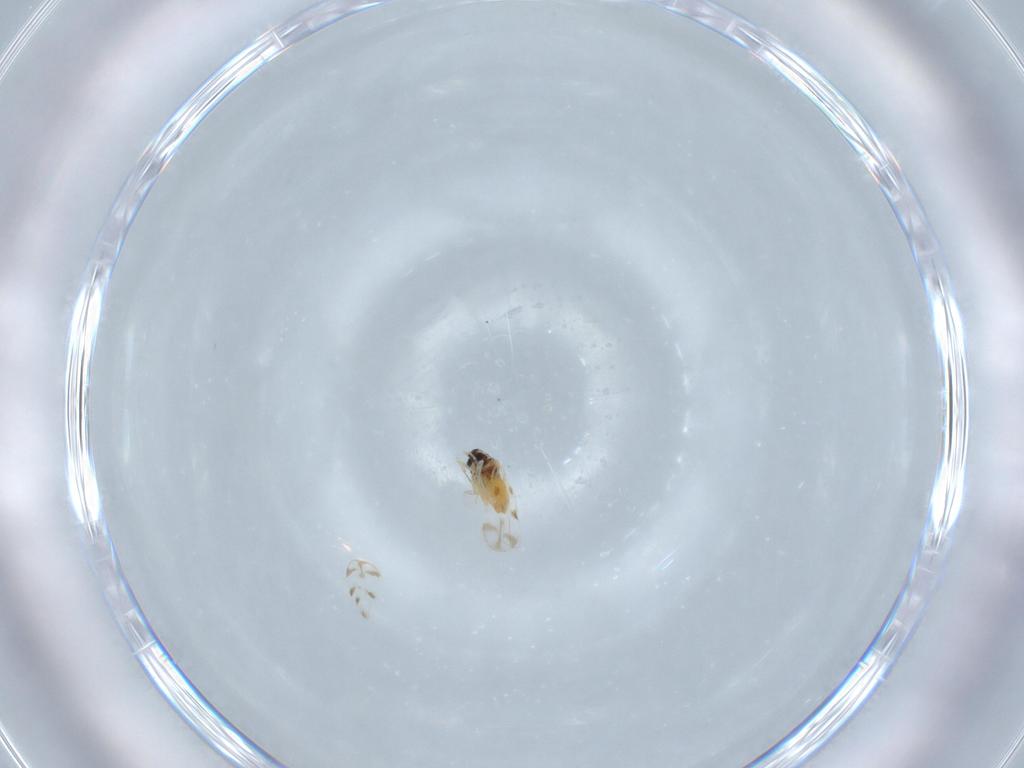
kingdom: Animalia
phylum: Arthropoda
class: Insecta
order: Hemiptera
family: Aleyrodidae
